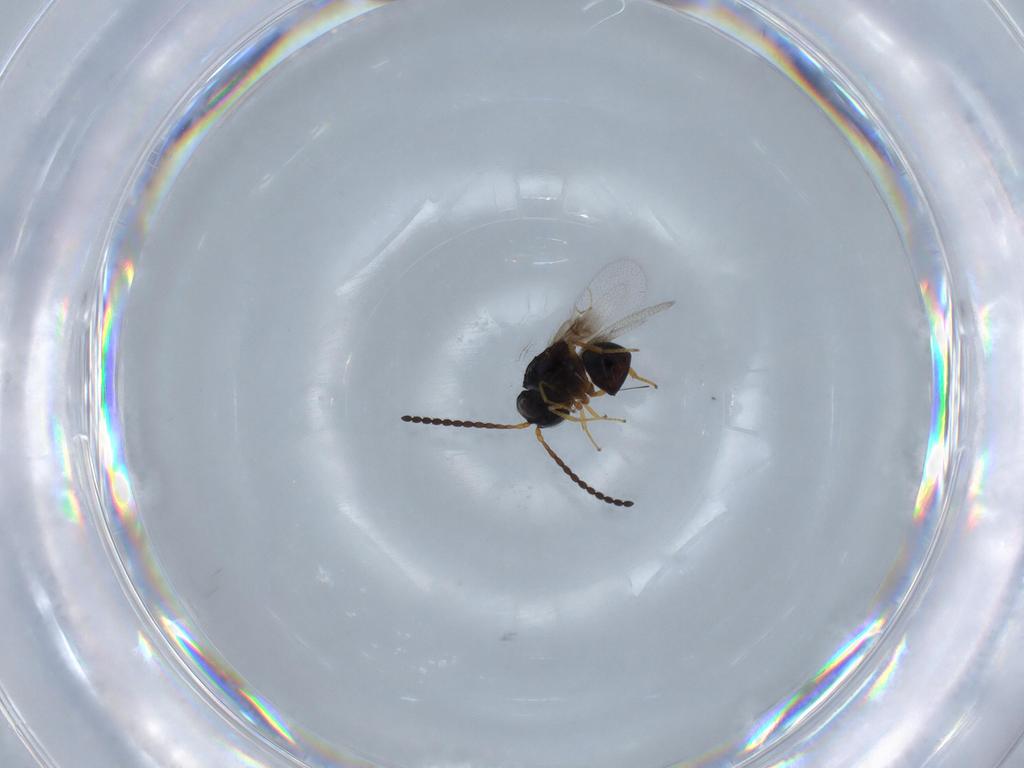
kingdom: Animalia
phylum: Arthropoda
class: Insecta
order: Hymenoptera
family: Figitidae
